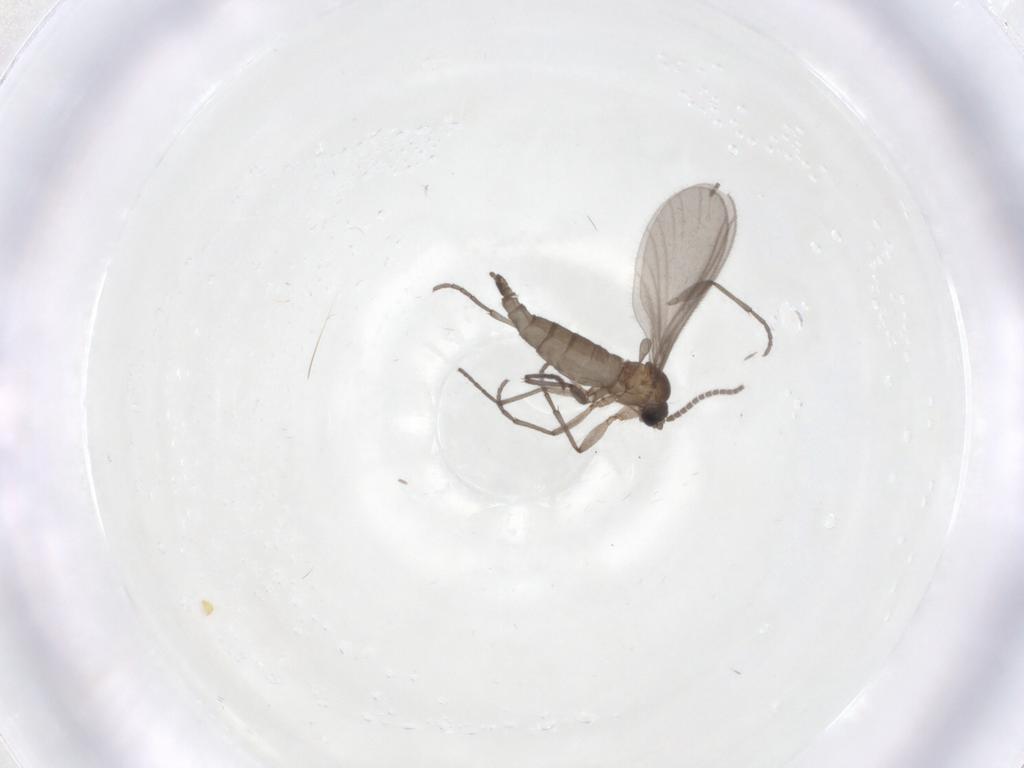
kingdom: Animalia
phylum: Arthropoda
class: Insecta
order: Diptera
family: Sciaridae
